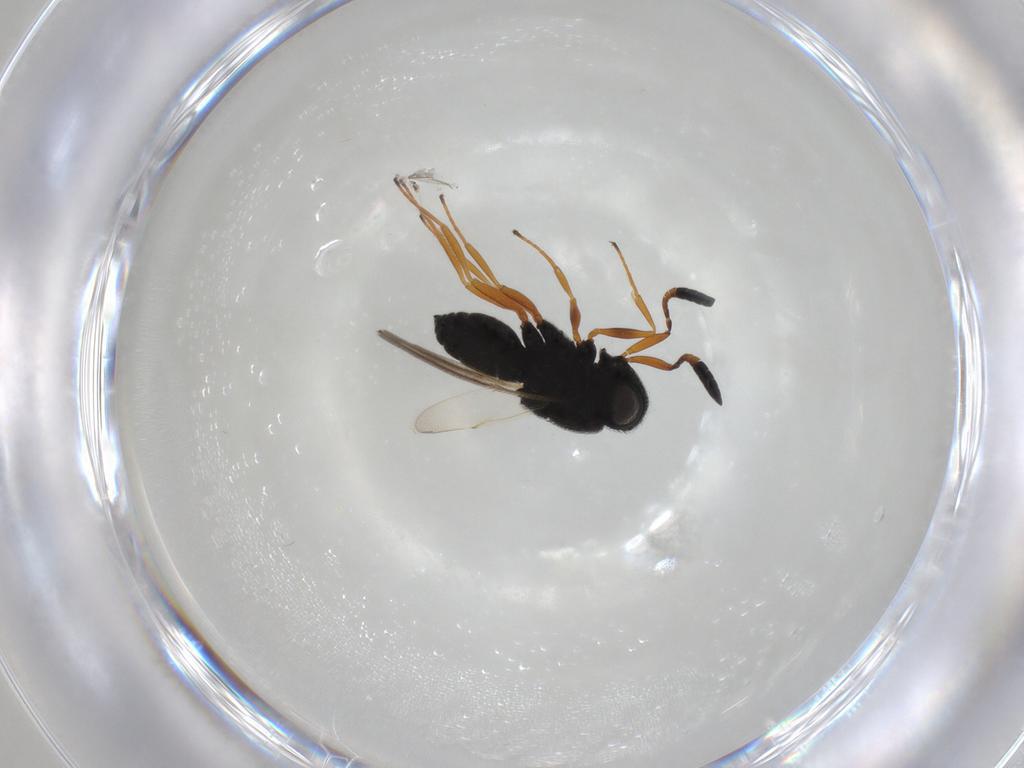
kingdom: Animalia
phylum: Arthropoda
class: Insecta
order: Hymenoptera
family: Scelionidae
